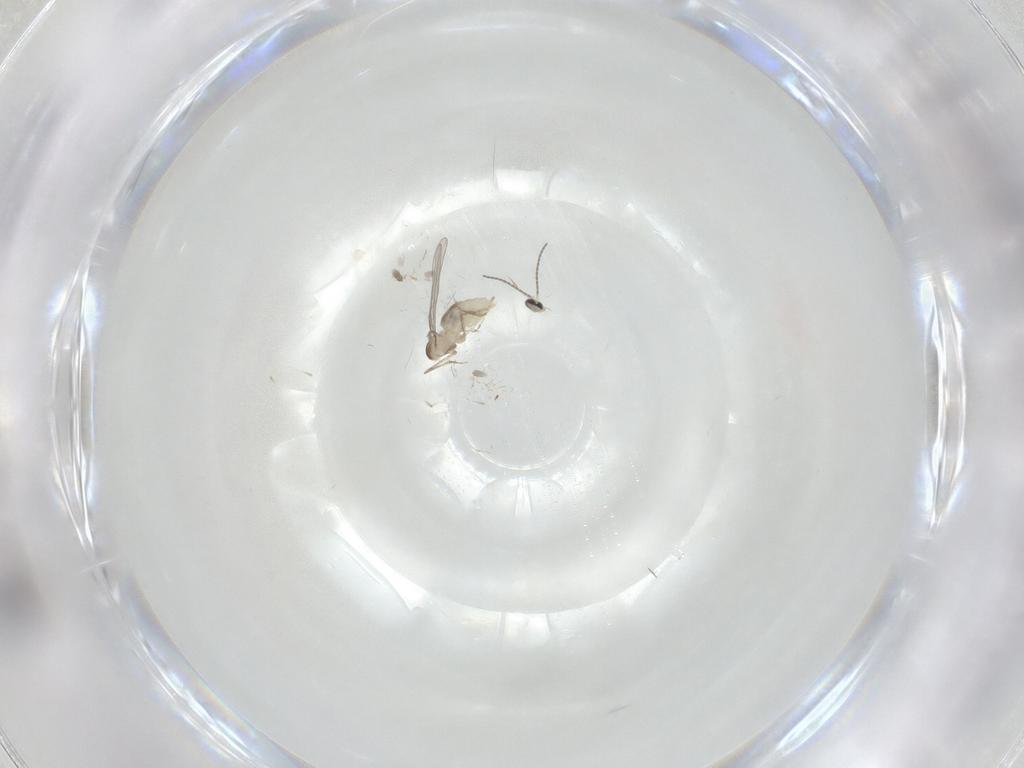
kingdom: Animalia
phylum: Arthropoda
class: Insecta
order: Diptera
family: Cecidomyiidae
